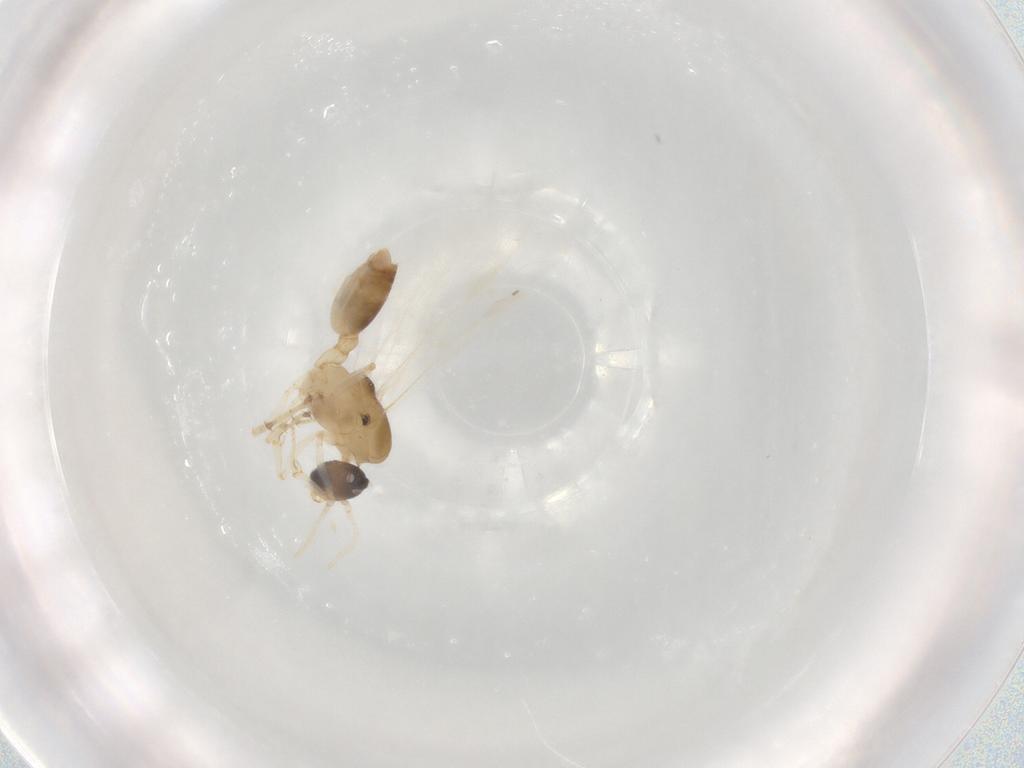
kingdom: Animalia
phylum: Arthropoda
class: Insecta
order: Hymenoptera
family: Formicidae
